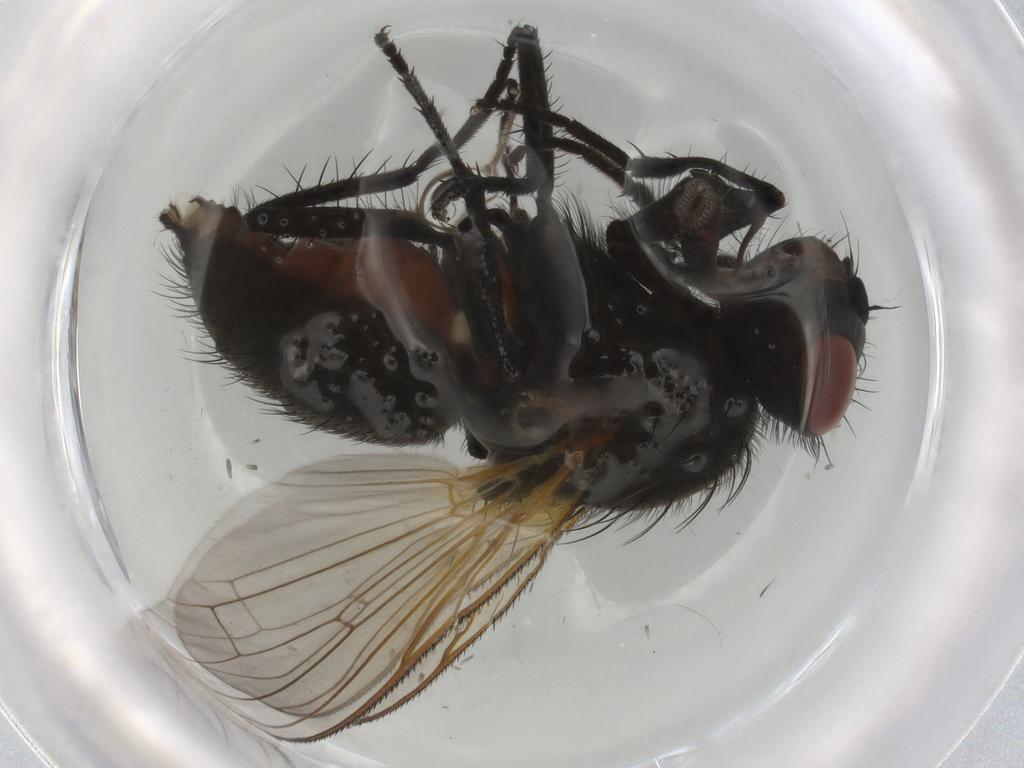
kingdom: Animalia
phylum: Arthropoda
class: Insecta
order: Diptera
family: Anthomyiidae
